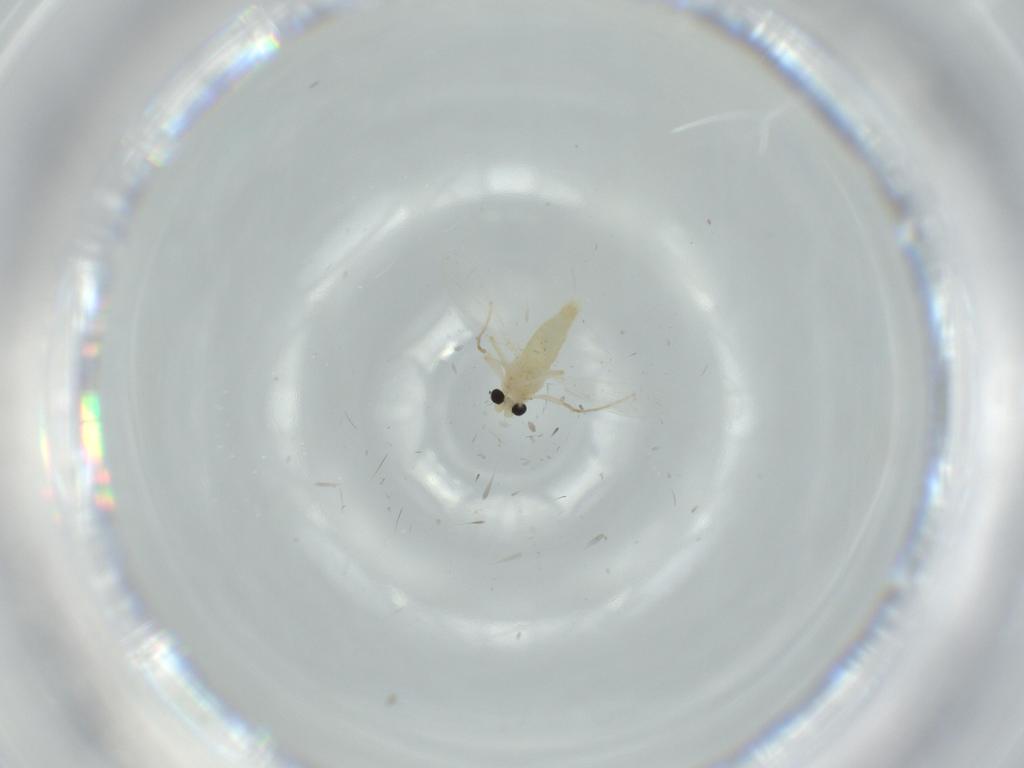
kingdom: Animalia
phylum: Arthropoda
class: Insecta
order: Diptera
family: Chironomidae
